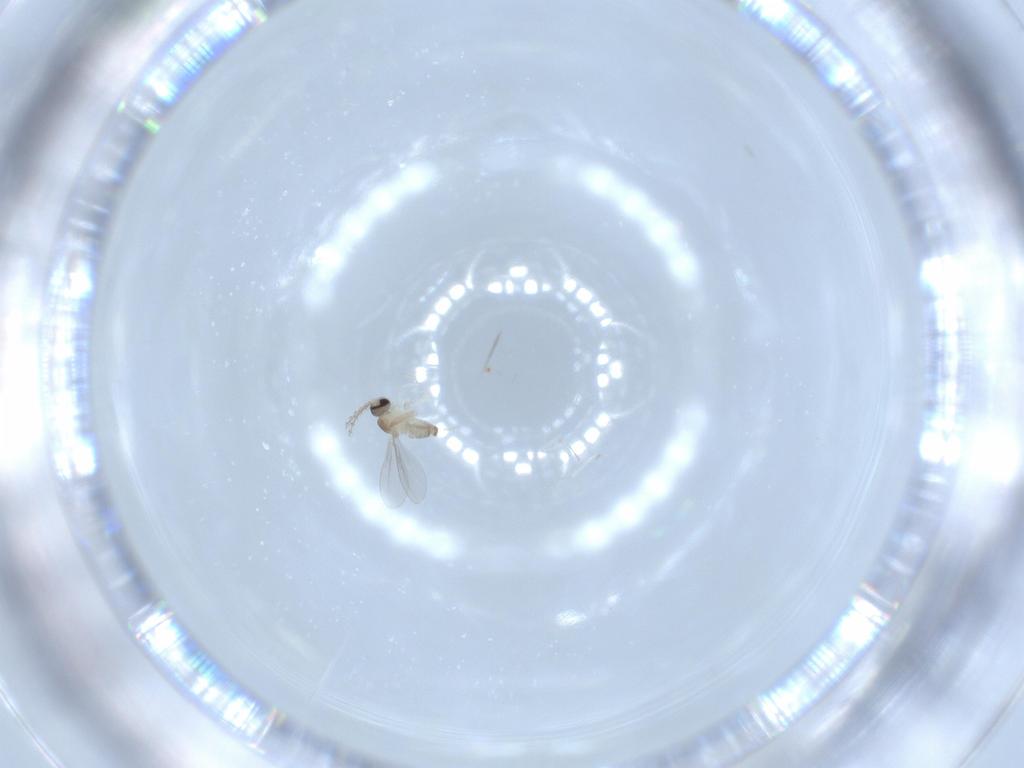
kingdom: Animalia
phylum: Arthropoda
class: Insecta
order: Diptera
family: Cecidomyiidae
